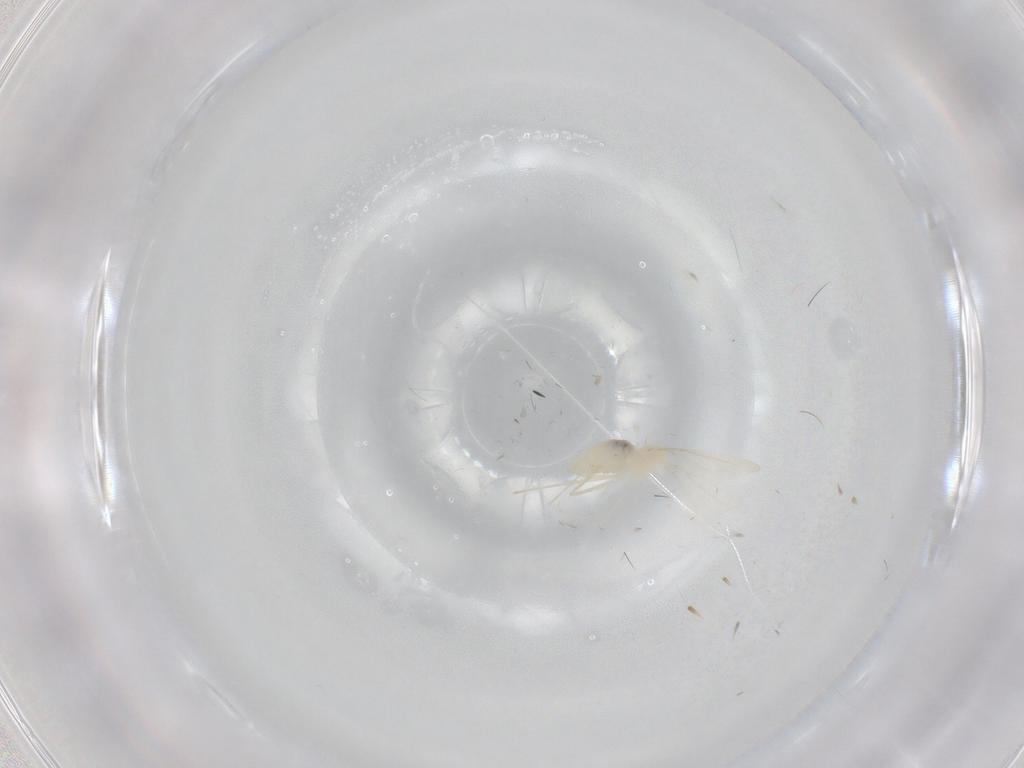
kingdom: Animalia
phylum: Arthropoda
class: Insecta
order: Diptera
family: Cecidomyiidae
